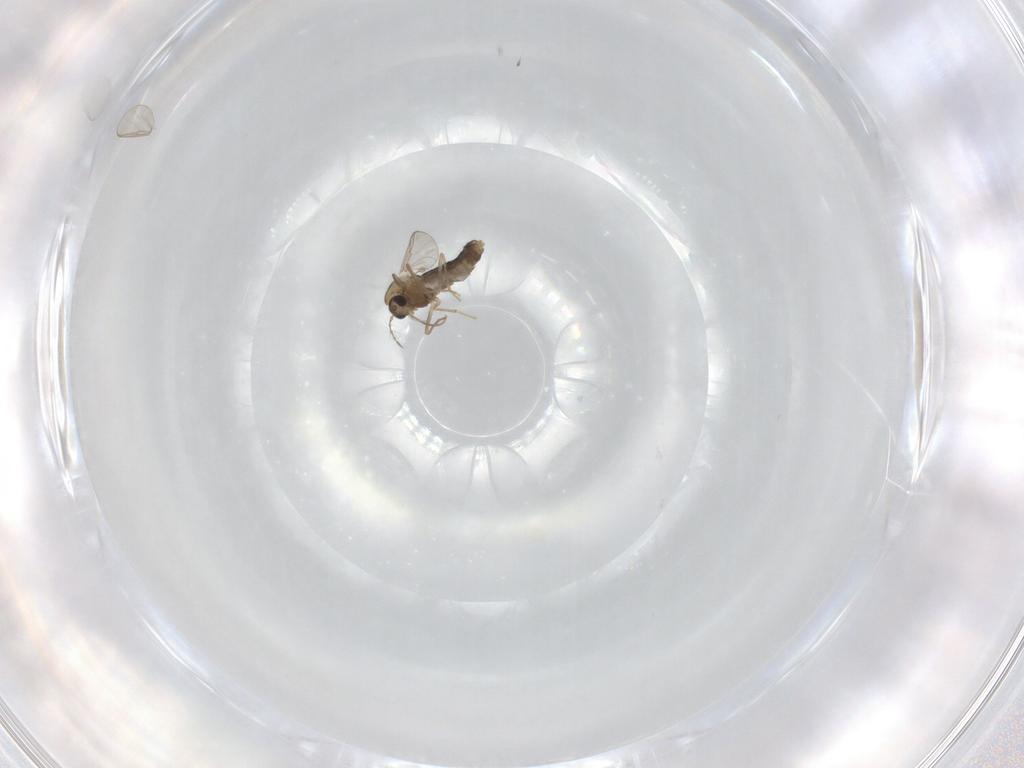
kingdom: Animalia
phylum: Arthropoda
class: Insecta
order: Diptera
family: Chironomidae
